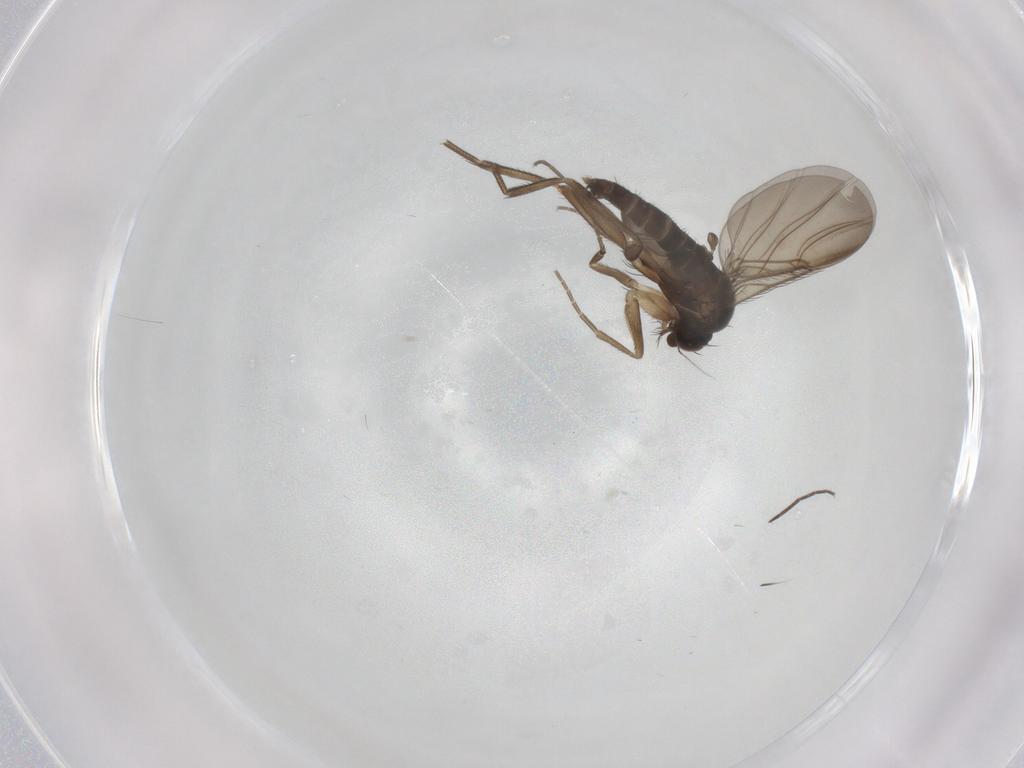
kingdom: Animalia
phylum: Arthropoda
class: Insecta
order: Diptera
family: Phoridae
